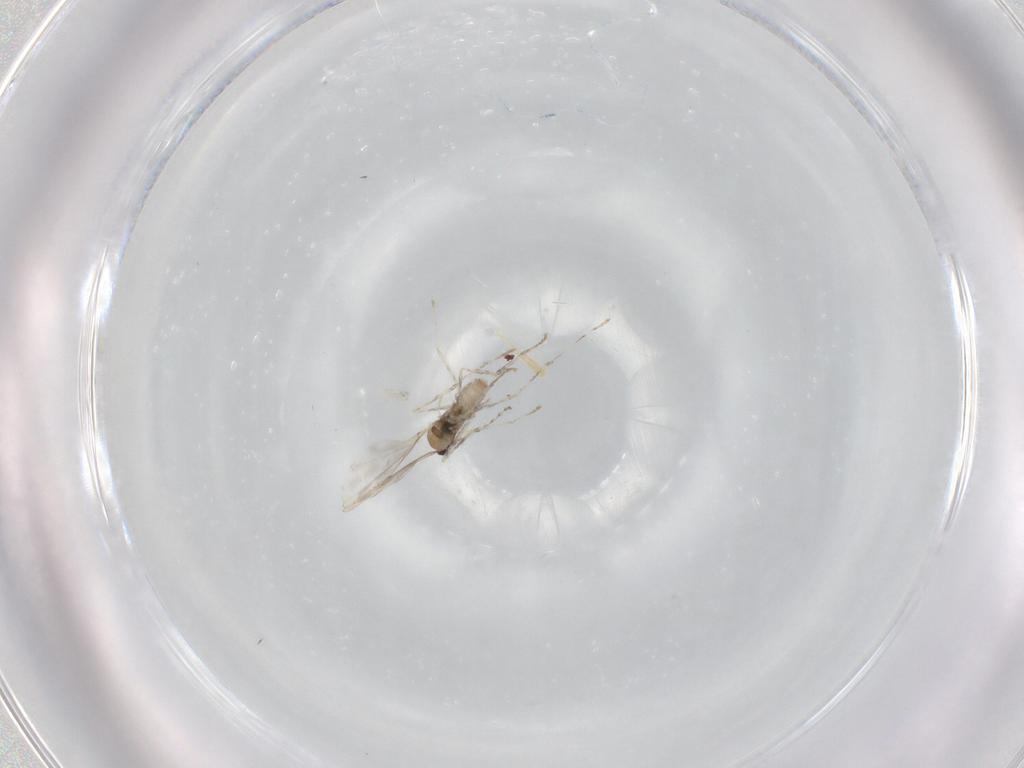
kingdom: Animalia
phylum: Arthropoda
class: Insecta
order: Diptera
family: Cecidomyiidae
